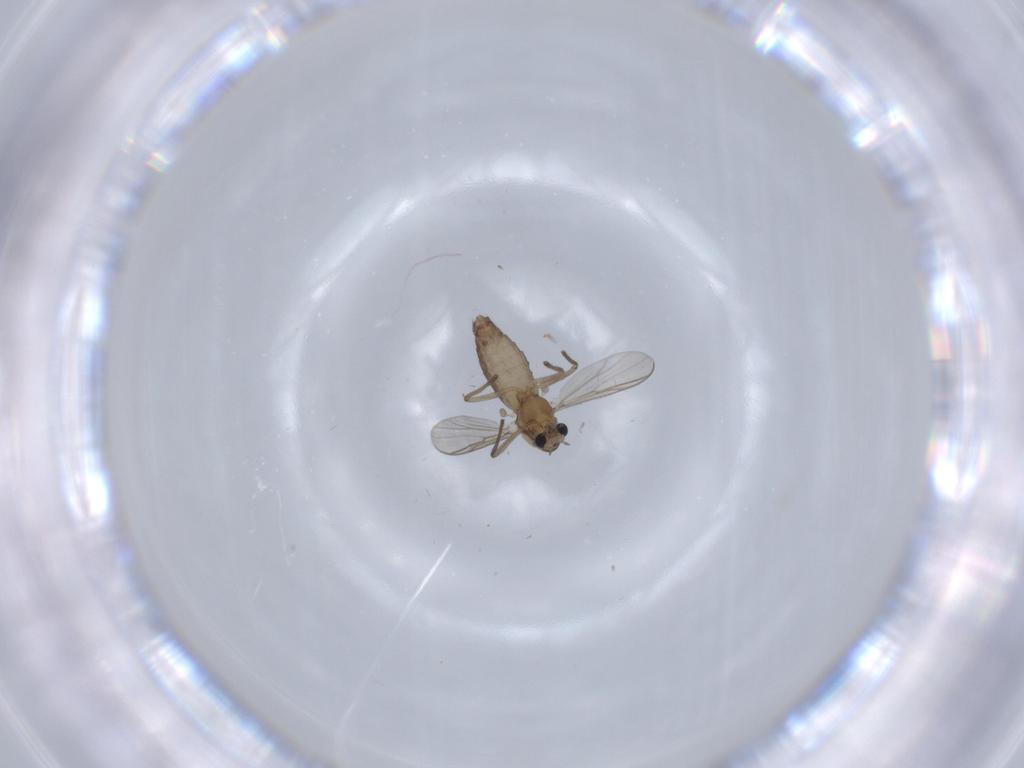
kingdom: Animalia
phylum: Arthropoda
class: Insecta
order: Diptera
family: Chironomidae
